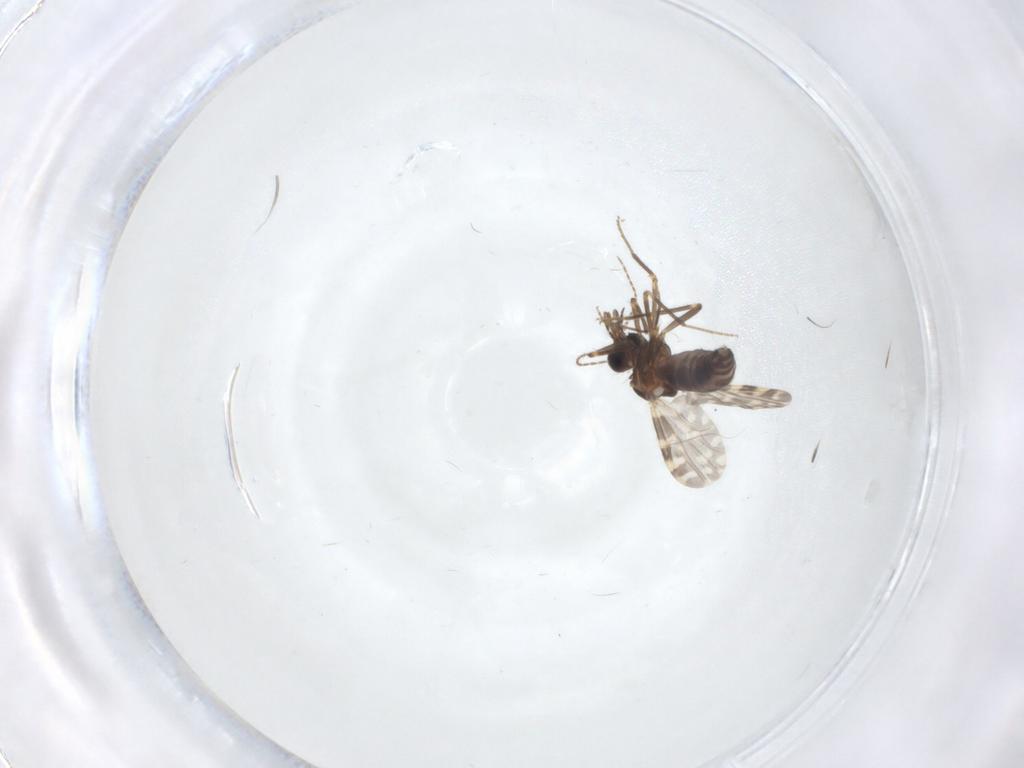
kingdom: Animalia
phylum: Arthropoda
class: Insecta
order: Diptera
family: Ceratopogonidae
